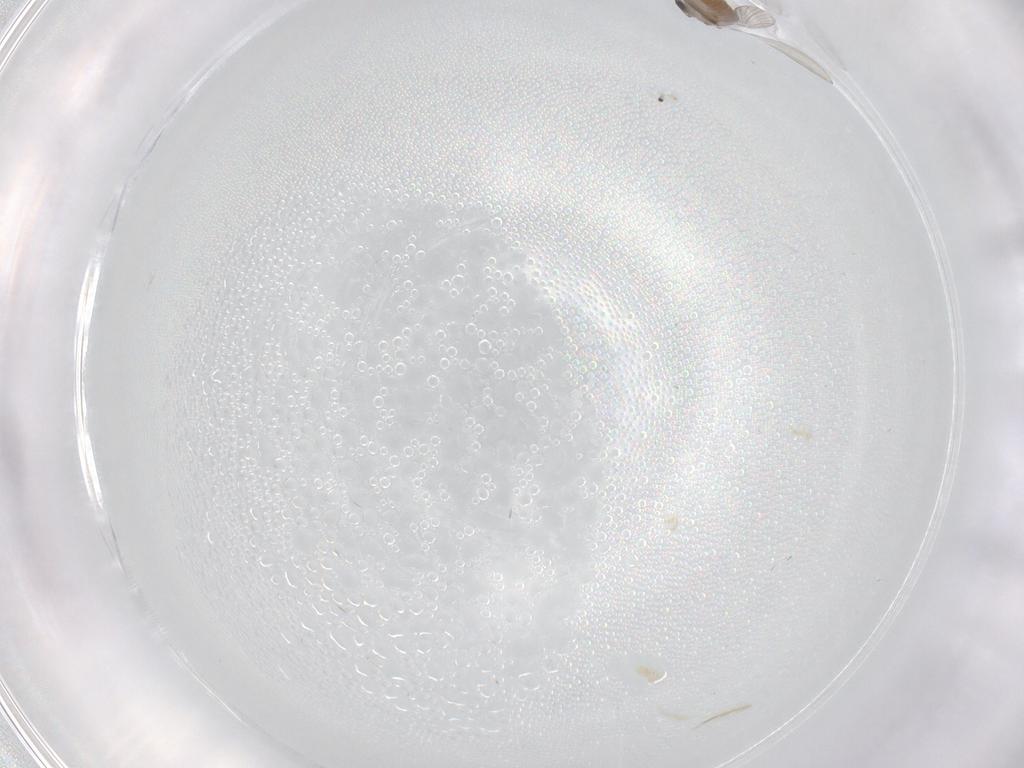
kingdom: Animalia
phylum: Arthropoda
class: Insecta
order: Diptera
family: Psychodidae
